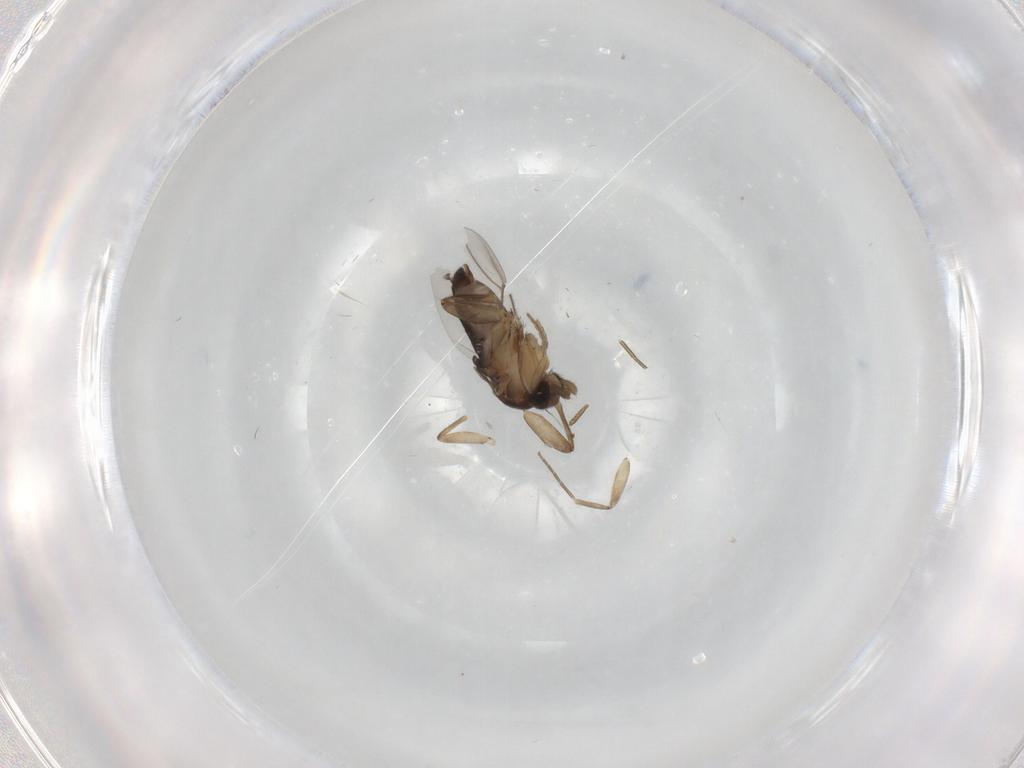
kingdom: Animalia
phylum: Arthropoda
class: Insecta
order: Diptera
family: Phoridae
